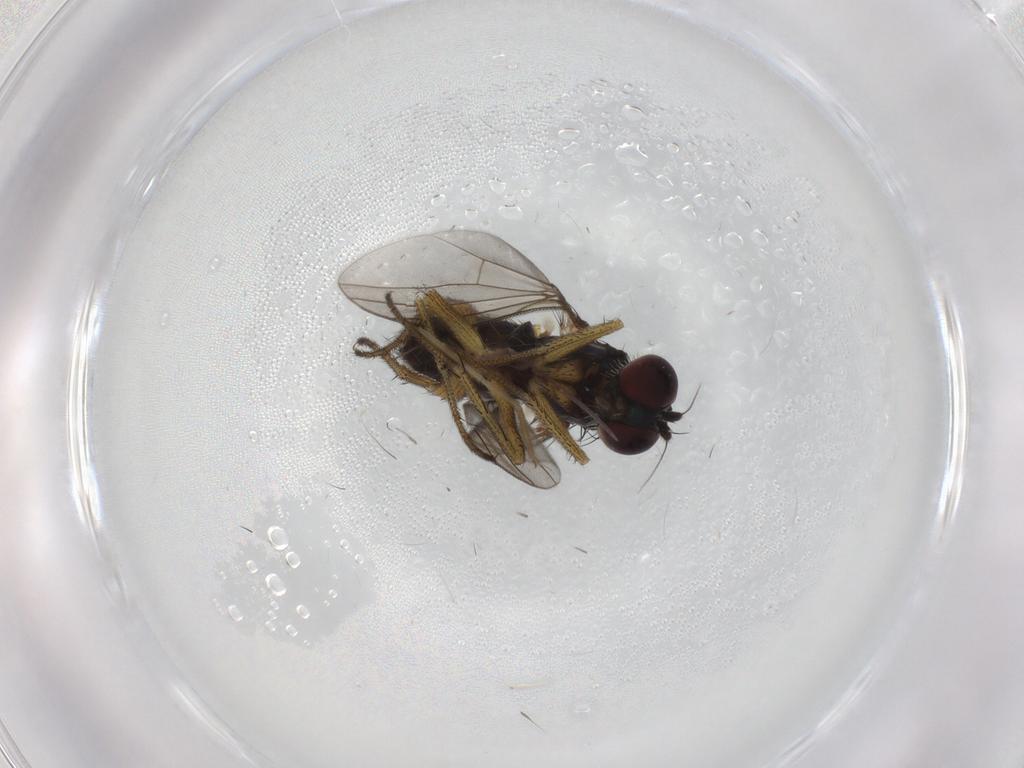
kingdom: Animalia
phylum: Arthropoda
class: Insecta
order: Diptera
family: Dolichopodidae
